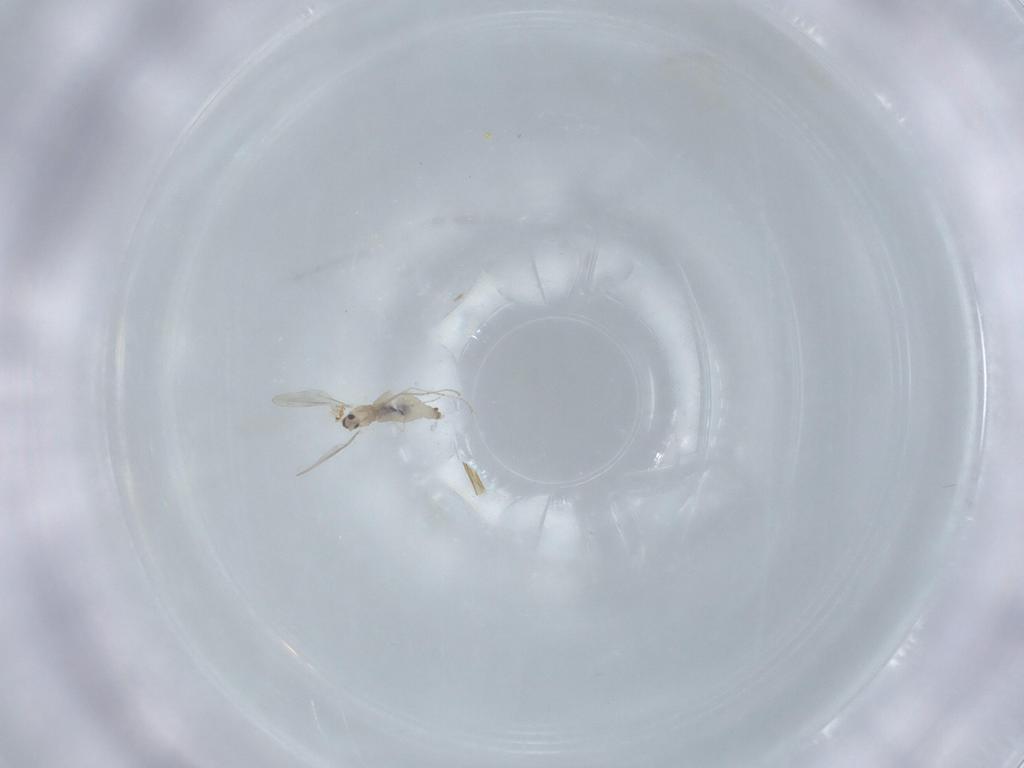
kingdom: Animalia
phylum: Arthropoda
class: Insecta
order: Diptera
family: Cecidomyiidae
